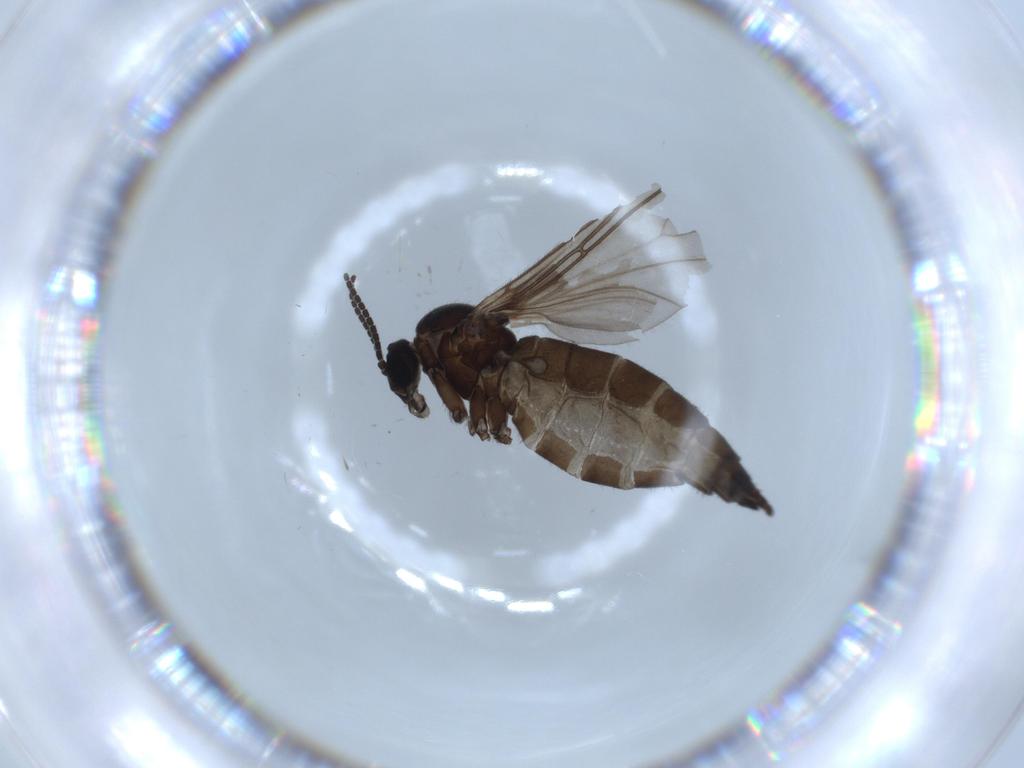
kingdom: Animalia
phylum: Arthropoda
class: Insecta
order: Diptera
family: Sciaridae
